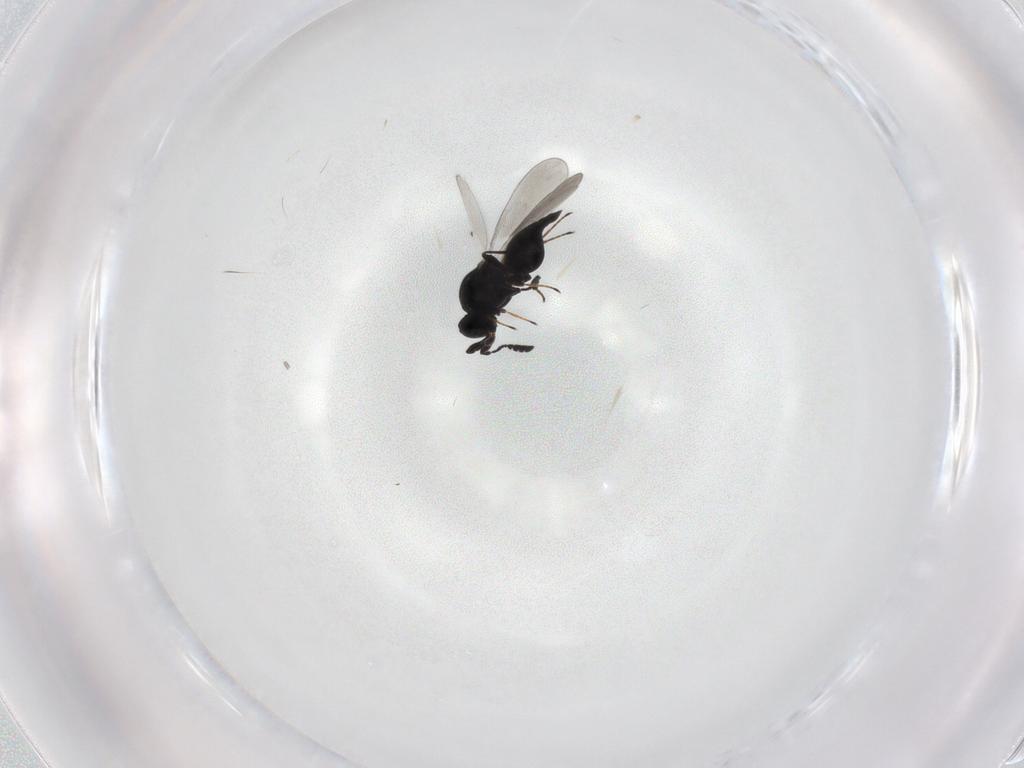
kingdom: Animalia
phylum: Arthropoda
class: Insecta
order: Hymenoptera
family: Platygastridae
